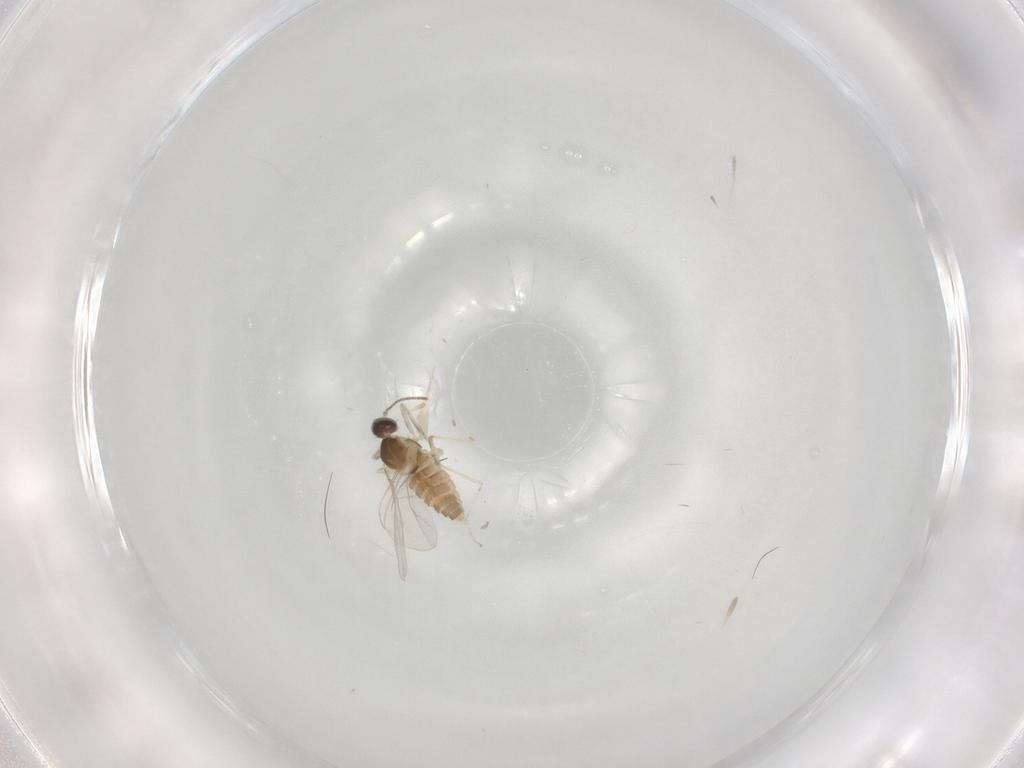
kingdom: Animalia
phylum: Arthropoda
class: Insecta
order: Diptera
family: Cecidomyiidae
